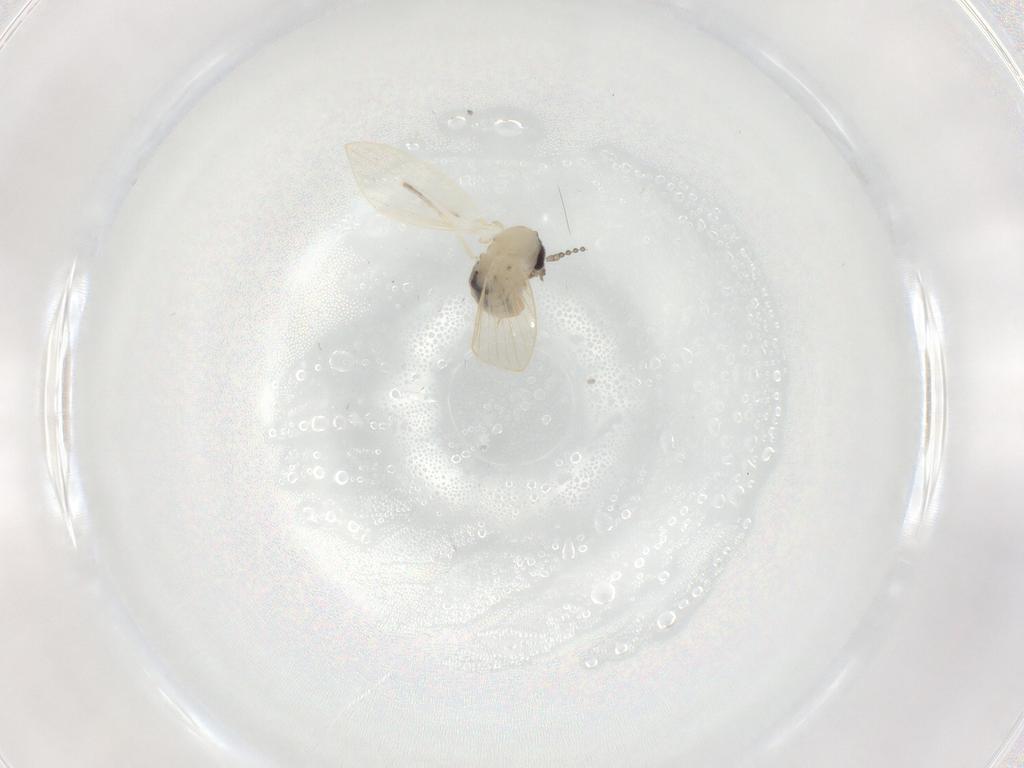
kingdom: Animalia
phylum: Arthropoda
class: Insecta
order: Diptera
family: Psychodidae
